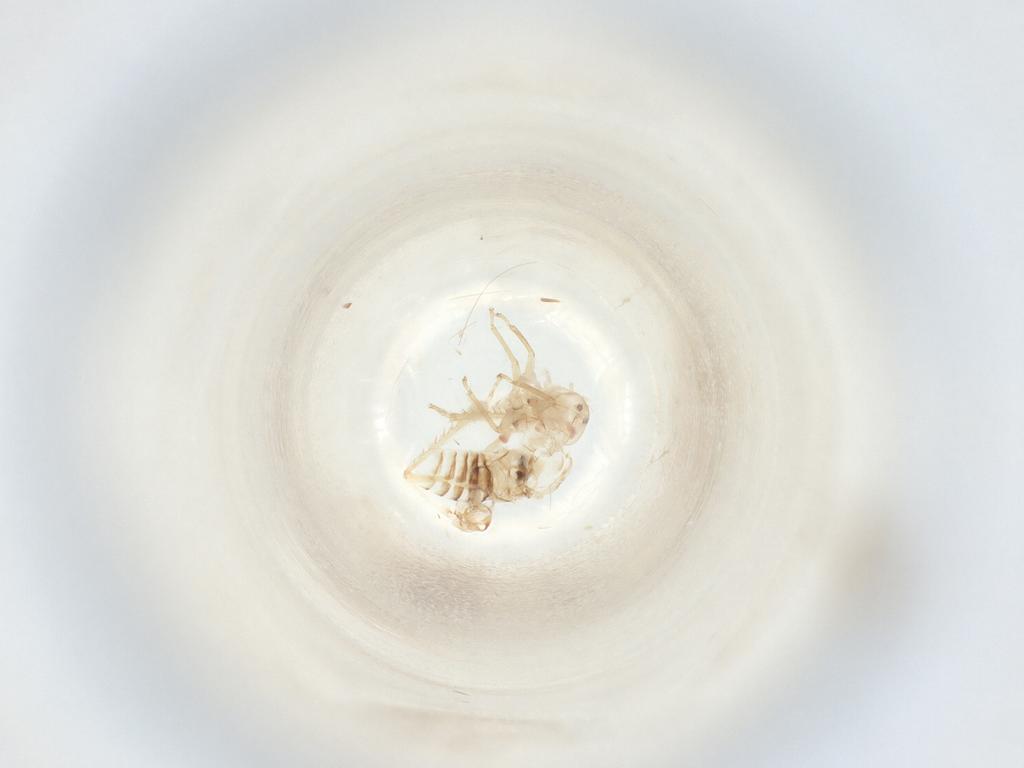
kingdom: Animalia
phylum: Arthropoda
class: Insecta
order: Hemiptera
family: Cicadellidae
